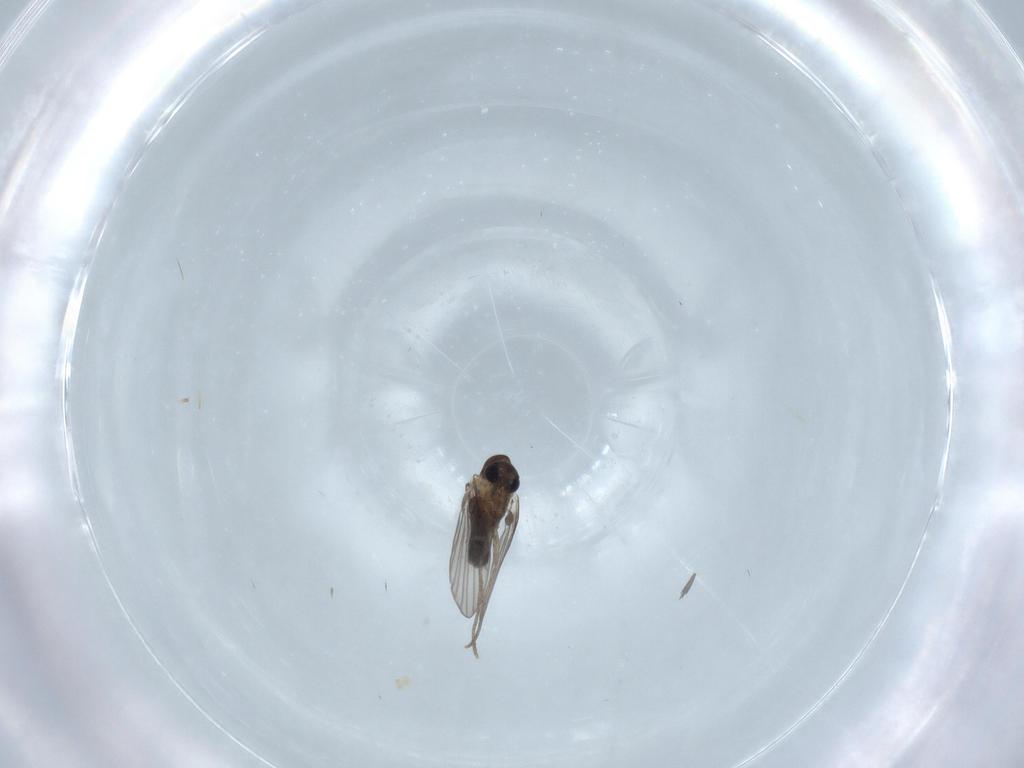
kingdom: Animalia
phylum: Arthropoda
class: Insecta
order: Diptera
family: Psychodidae
